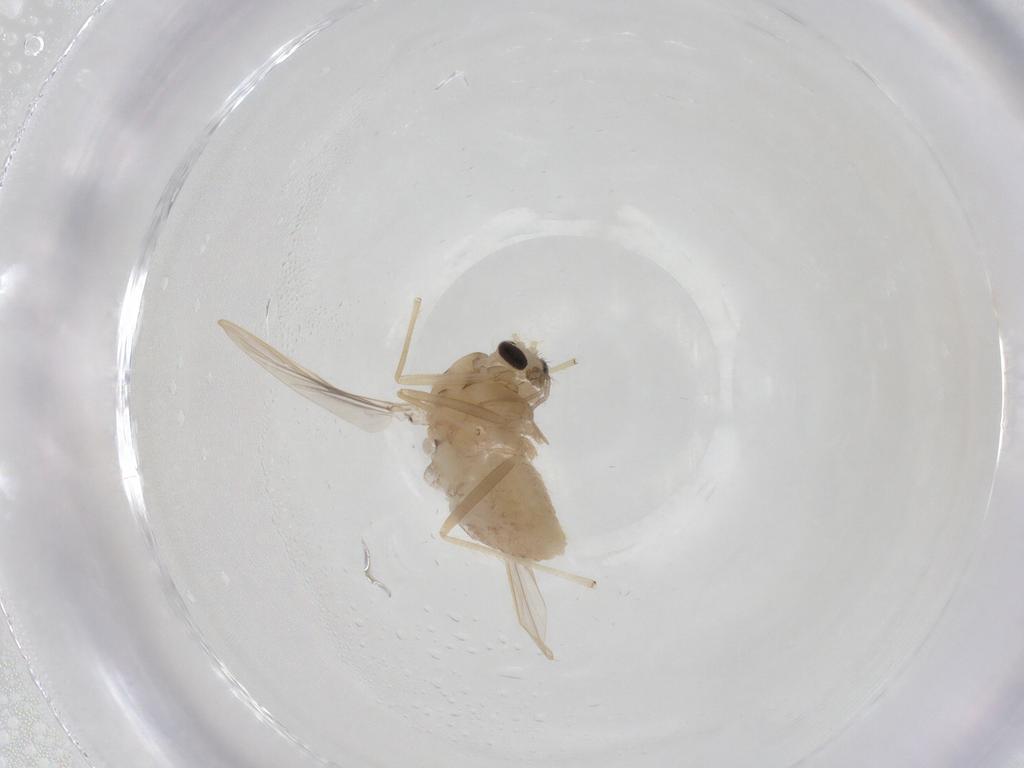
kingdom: Animalia
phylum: Arthropoda
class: Insecta
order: Diptera
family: Chironomidae
